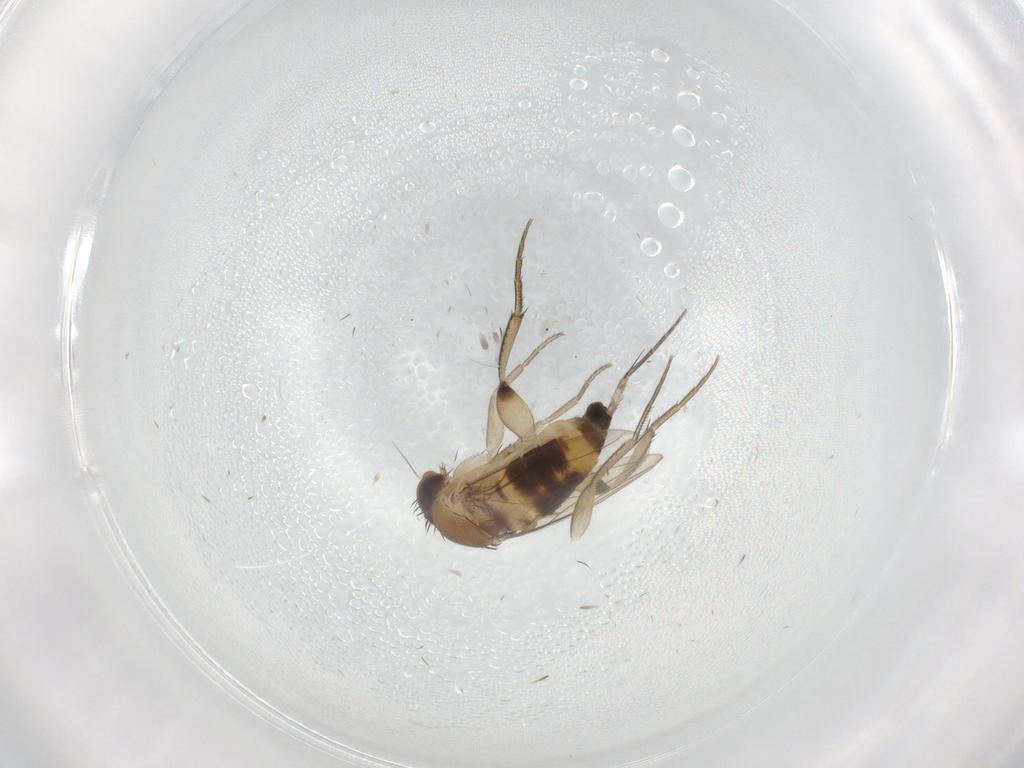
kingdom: Animalia
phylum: Arthropoda
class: Insecta
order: Diptera
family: Phoridae
